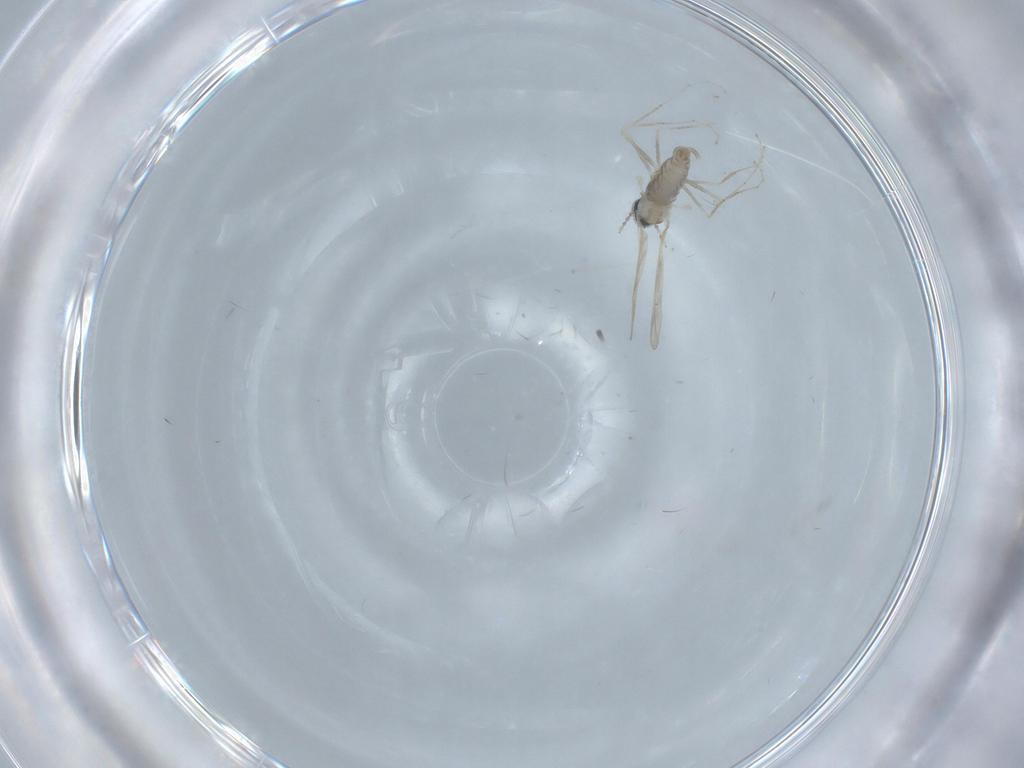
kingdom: Animalia
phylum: Arthropoda
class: Insecta
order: Diptera
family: Cecidomyiidae
